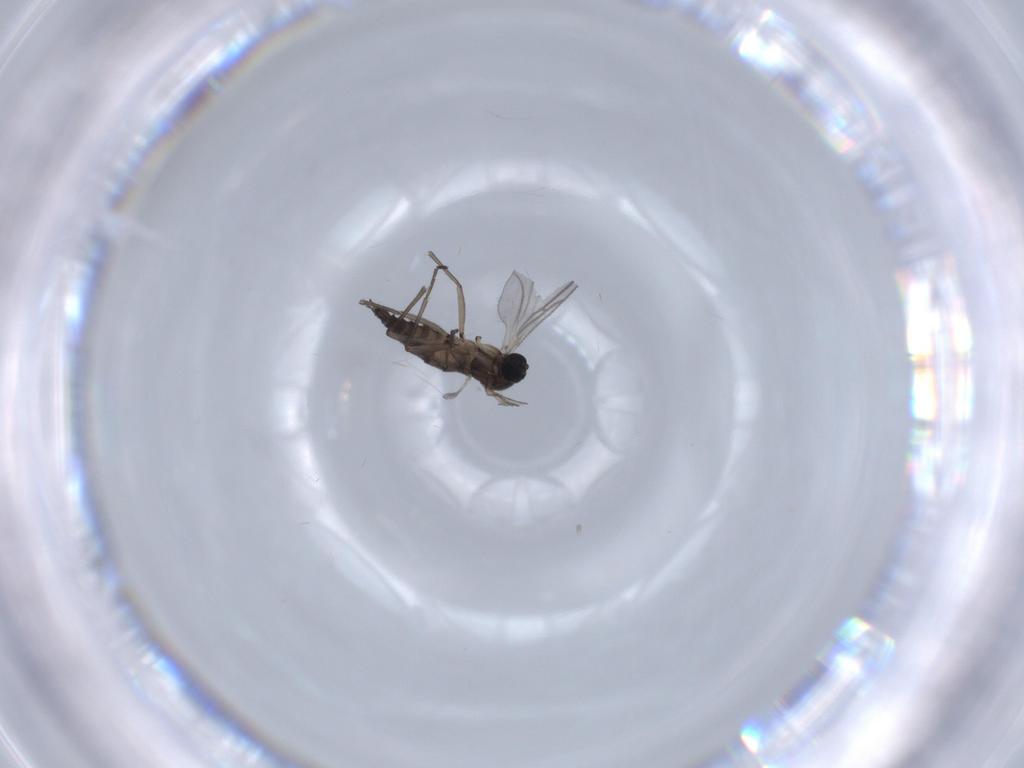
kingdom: Animalia
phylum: Arthropoda
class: Insecta
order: Diptera
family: Sciaridae
